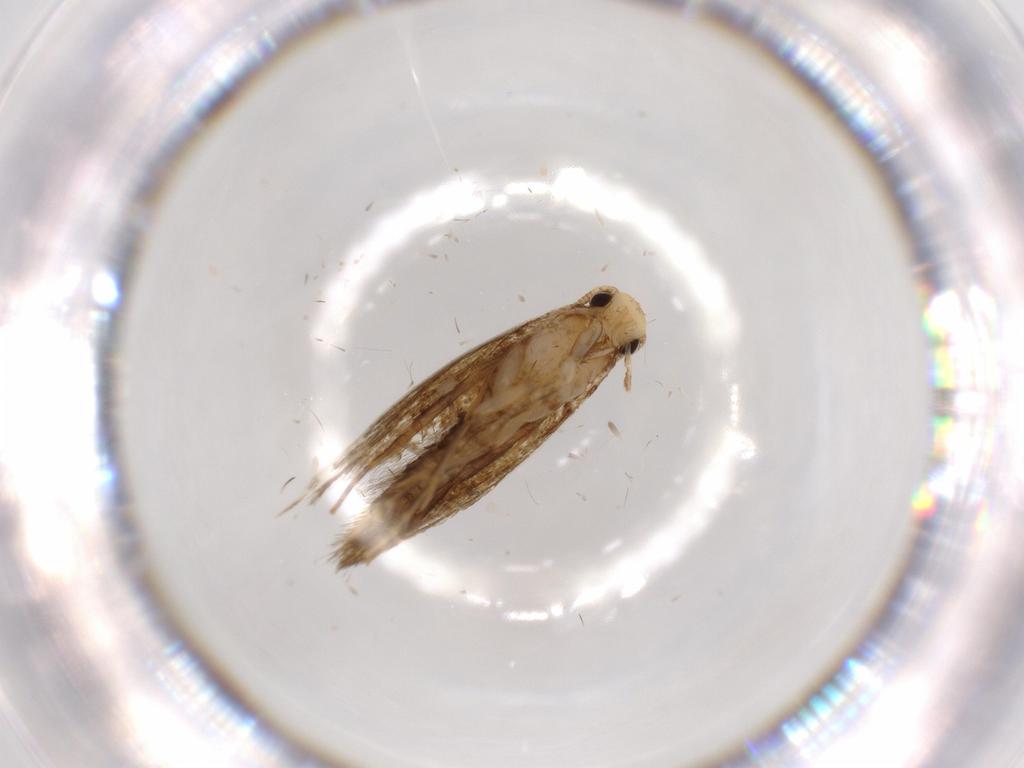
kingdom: Animalia
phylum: Arthropoda
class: Insecta
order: Lepidoptera
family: Tineidae
